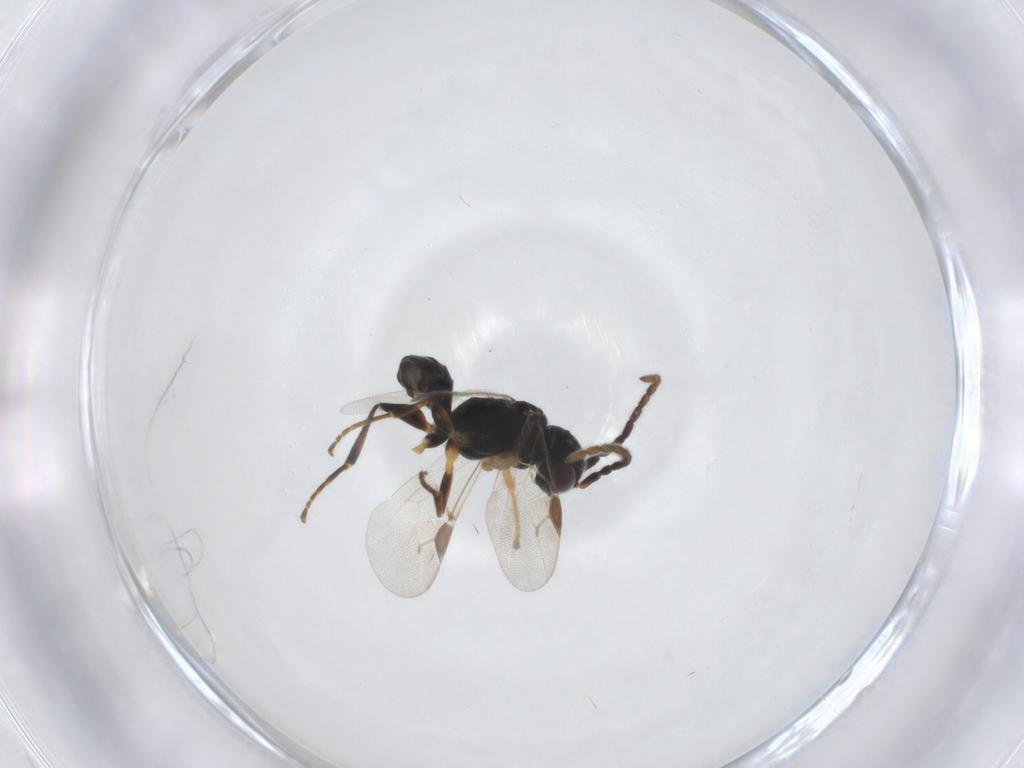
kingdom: Animalia
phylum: Arthropoda
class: Insecta
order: Hymenoptera
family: Dryinidae
